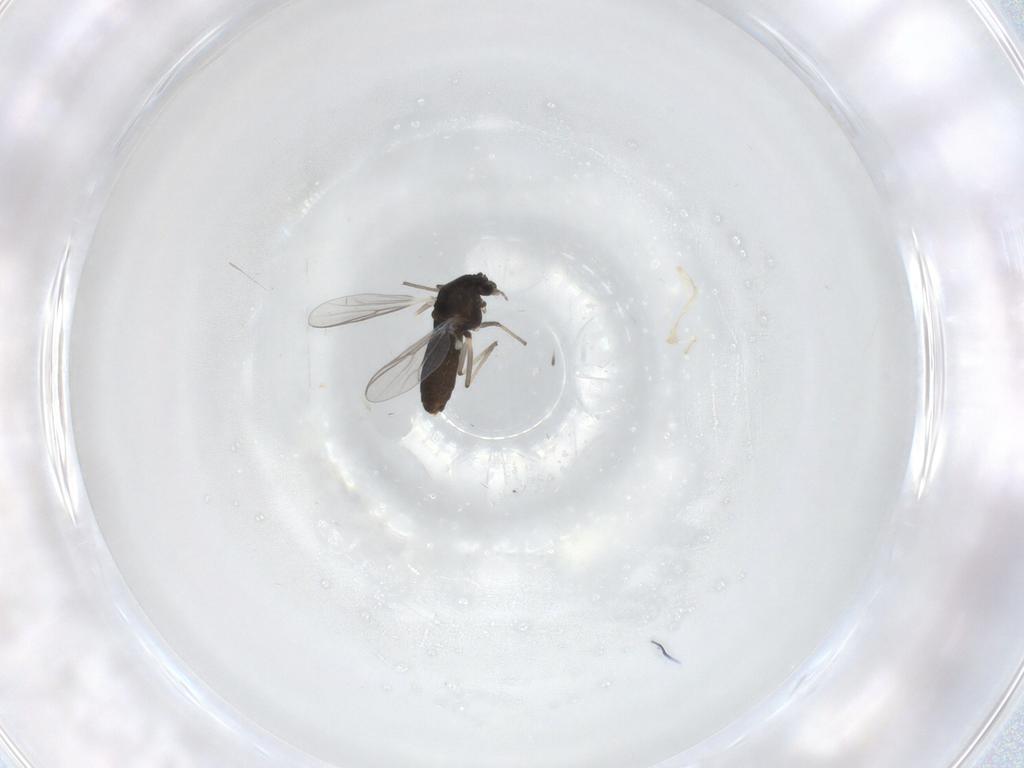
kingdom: Animalia
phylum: Arthropoda
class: Insecta
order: Diptera
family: Chironomidae
